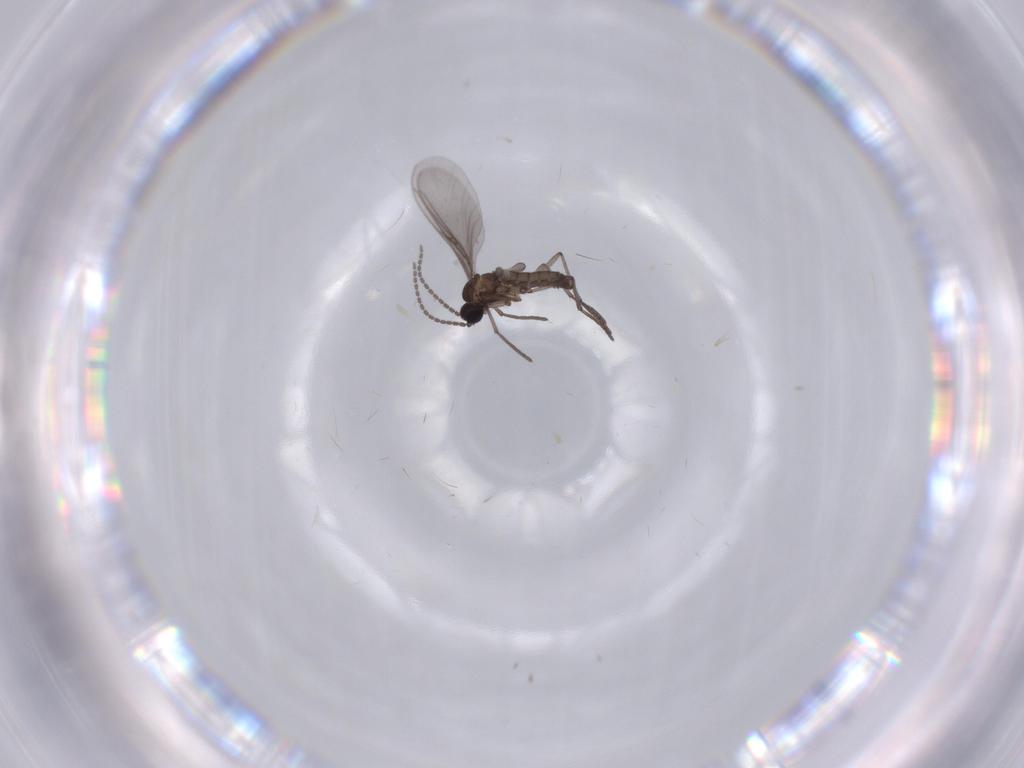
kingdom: Animalia
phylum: Arthropoda
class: Insecta
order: Diptera
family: Sciaridae
